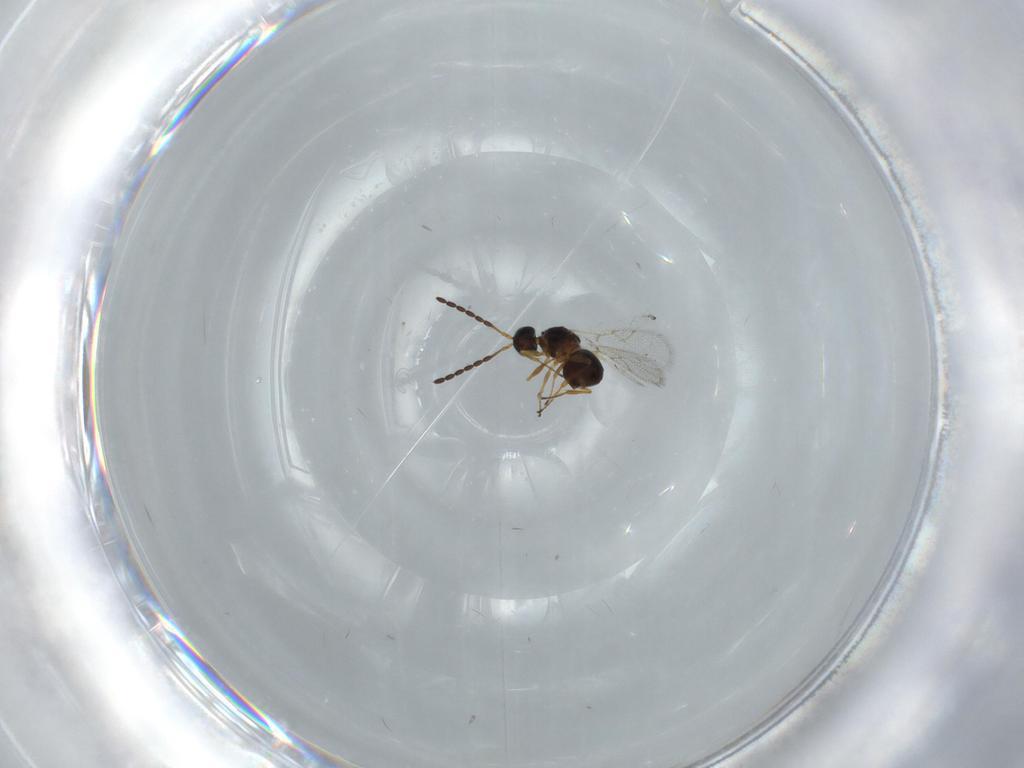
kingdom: Animalia
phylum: Arthropoda
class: Insecta
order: Hymenoptera
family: Figitidae
